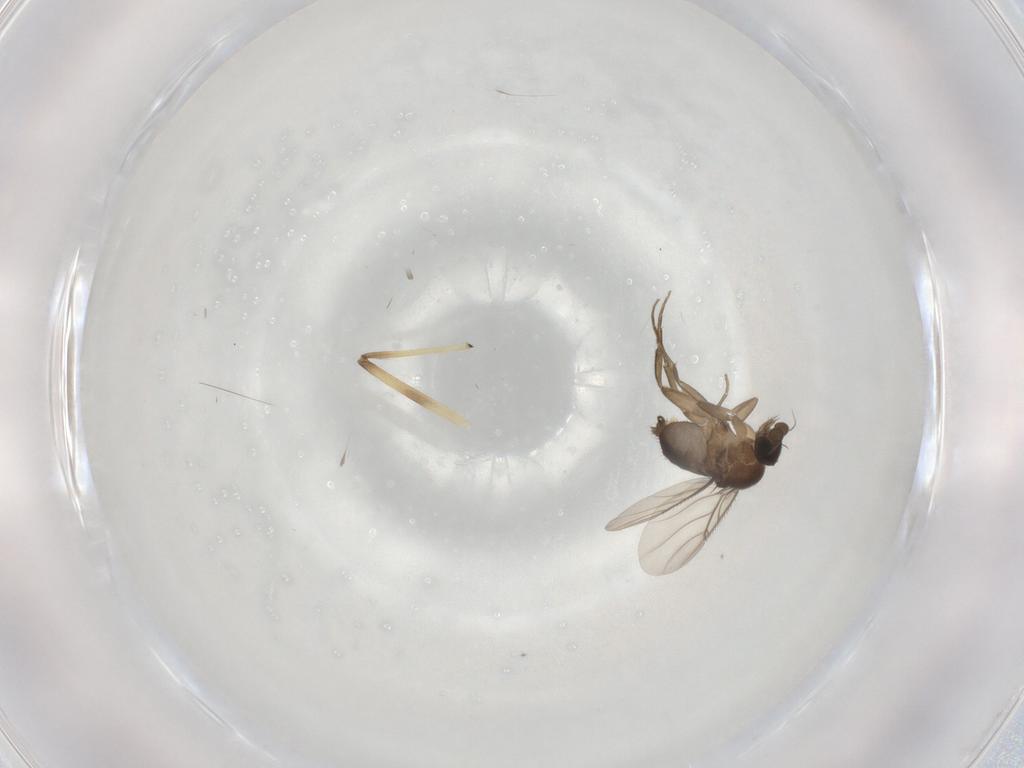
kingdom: Animalia
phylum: Arthropoda
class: Insecta
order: Diptera
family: Phoridae
